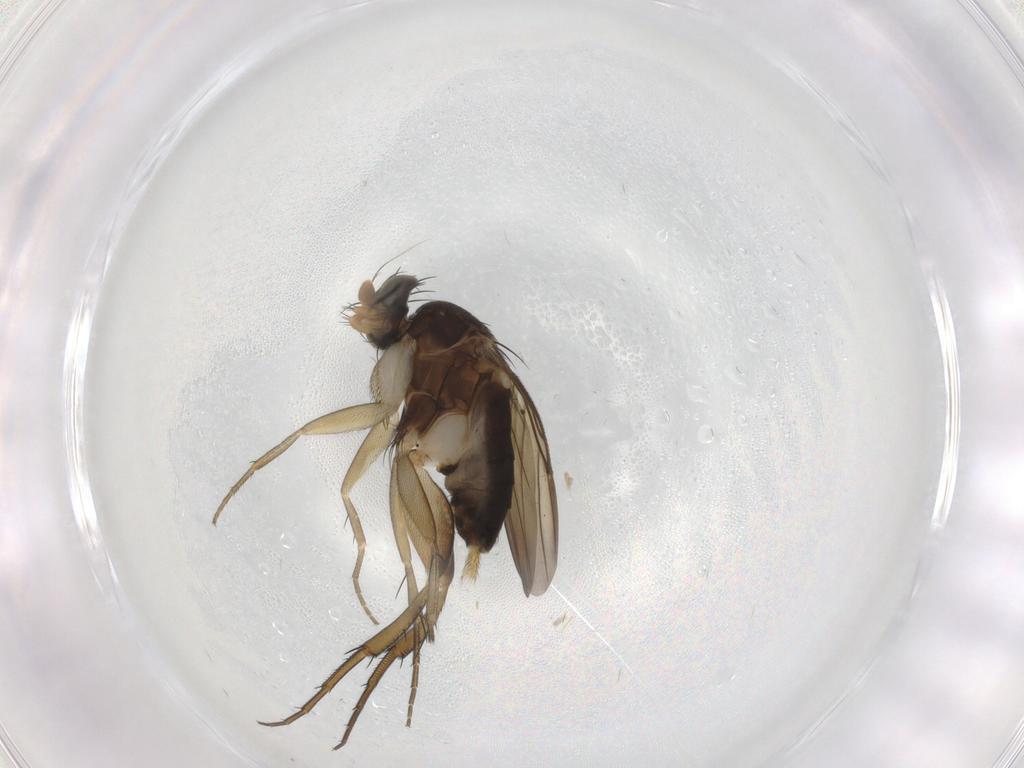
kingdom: Animalia
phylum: Arthropoda
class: Insecta
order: Diptera
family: Phoridae
